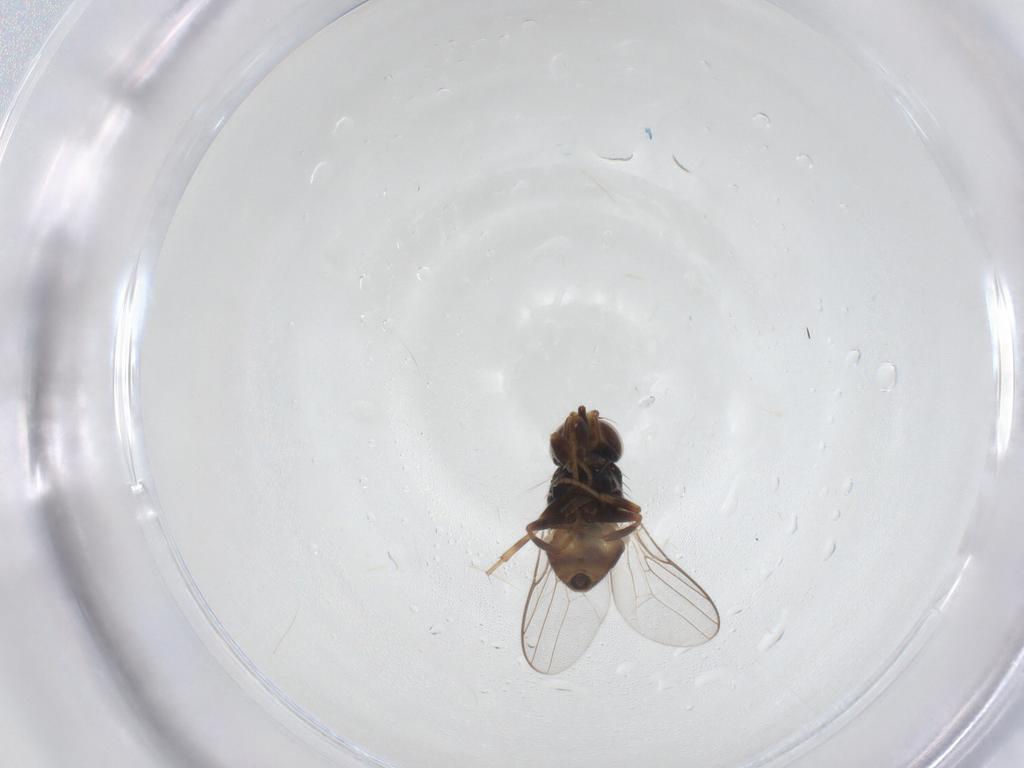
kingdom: Animalia
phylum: Arthropoda
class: Insecta
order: Diptera
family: Chloropidae
